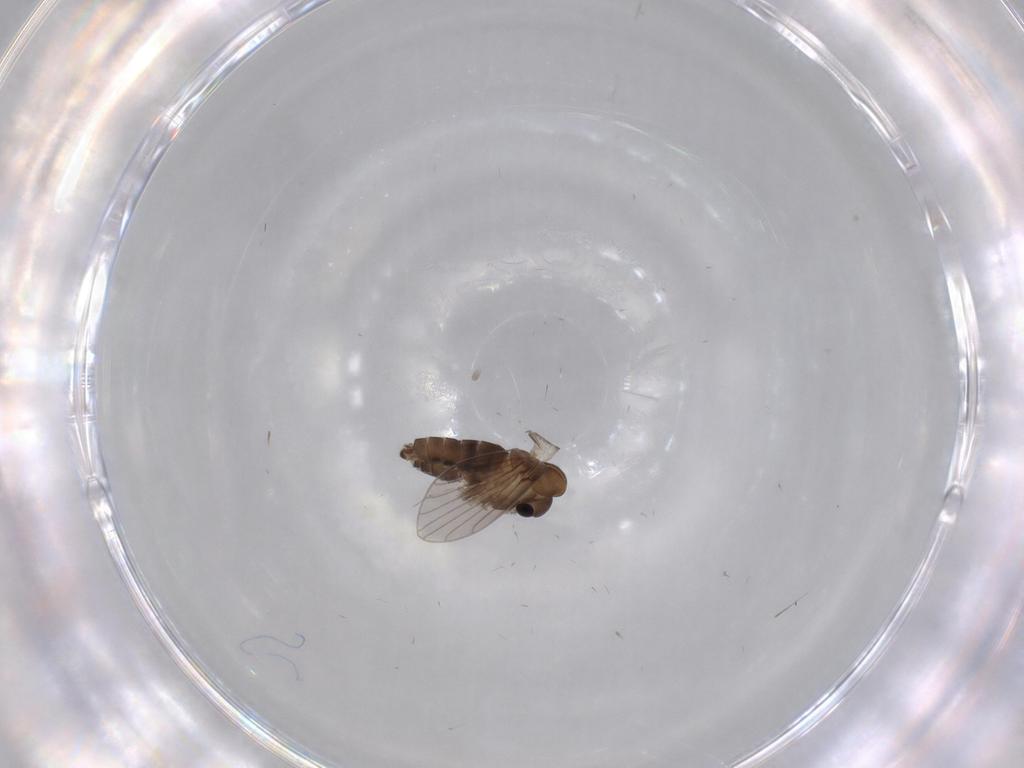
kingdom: Animalia
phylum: Arthropoda
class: Insecta
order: Diptera
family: Psychodidae
